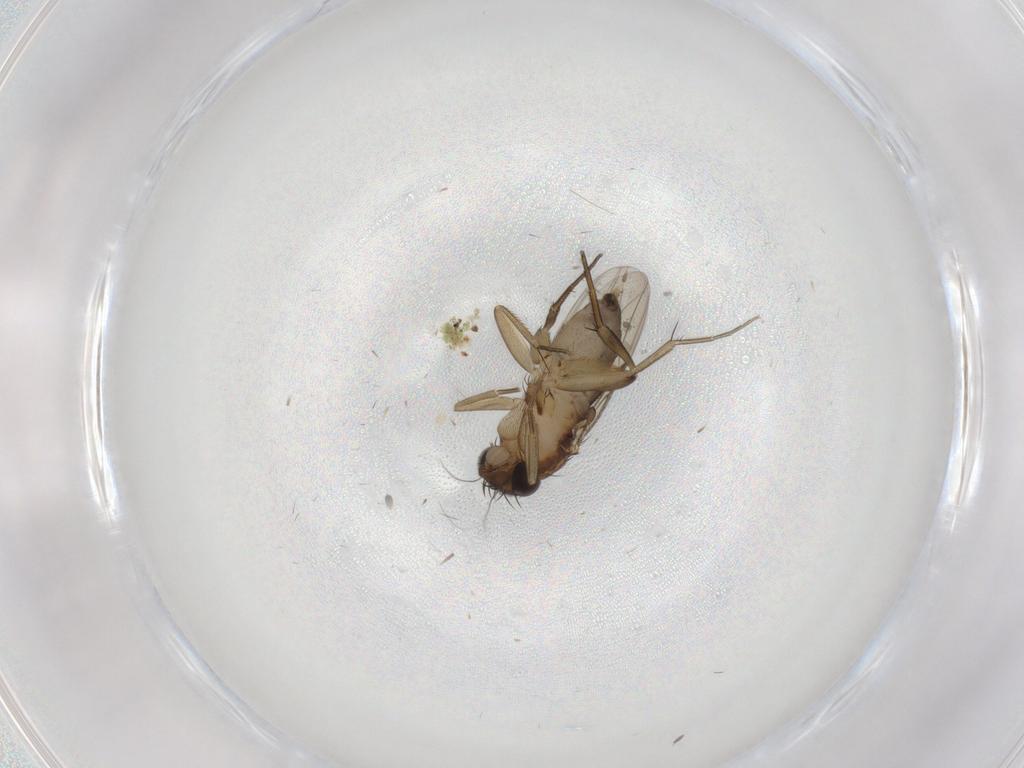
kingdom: Animalia
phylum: Arthropoda
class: Insecta
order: Diptera
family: Phoridae
